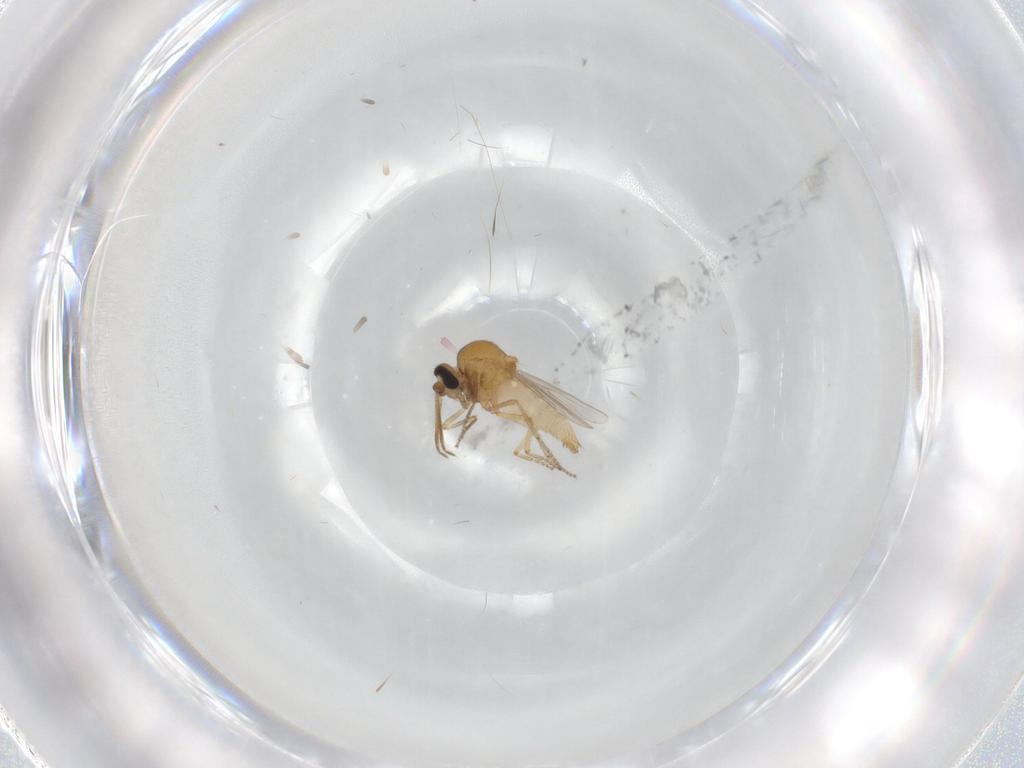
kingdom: Animalia
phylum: Arthropoda
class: Insecta
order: Diptera
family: Ceratopogonidae
